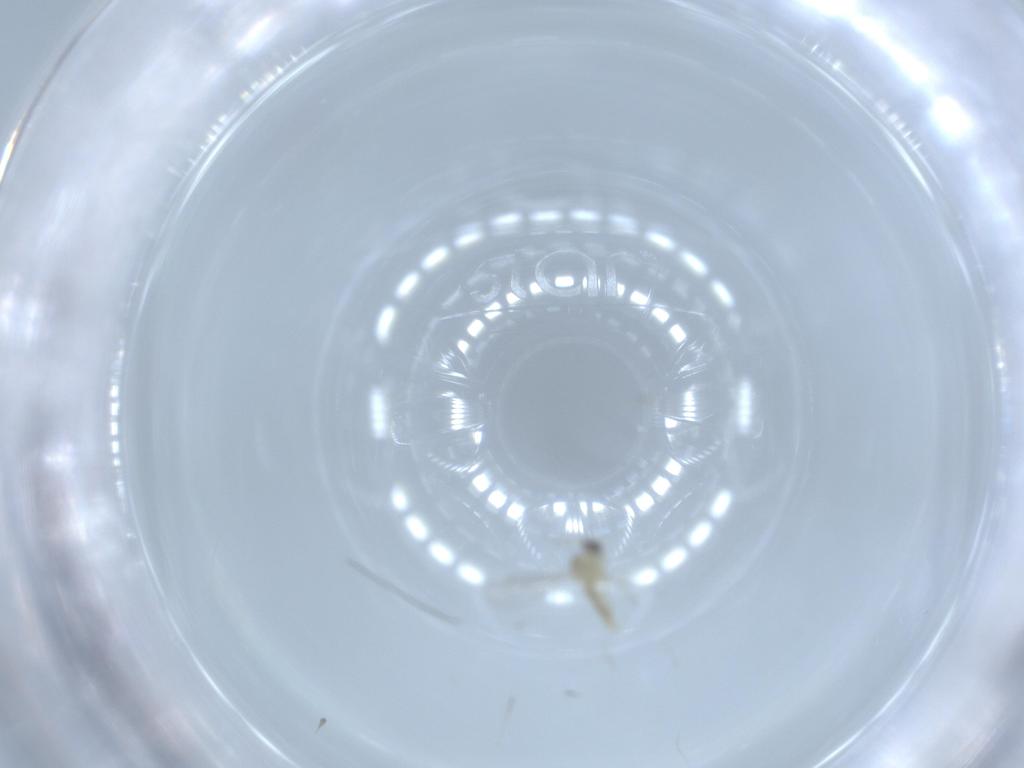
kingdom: Animalia
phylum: Arthropoda
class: Insecta
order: Diptera
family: Cecidomyiidae
